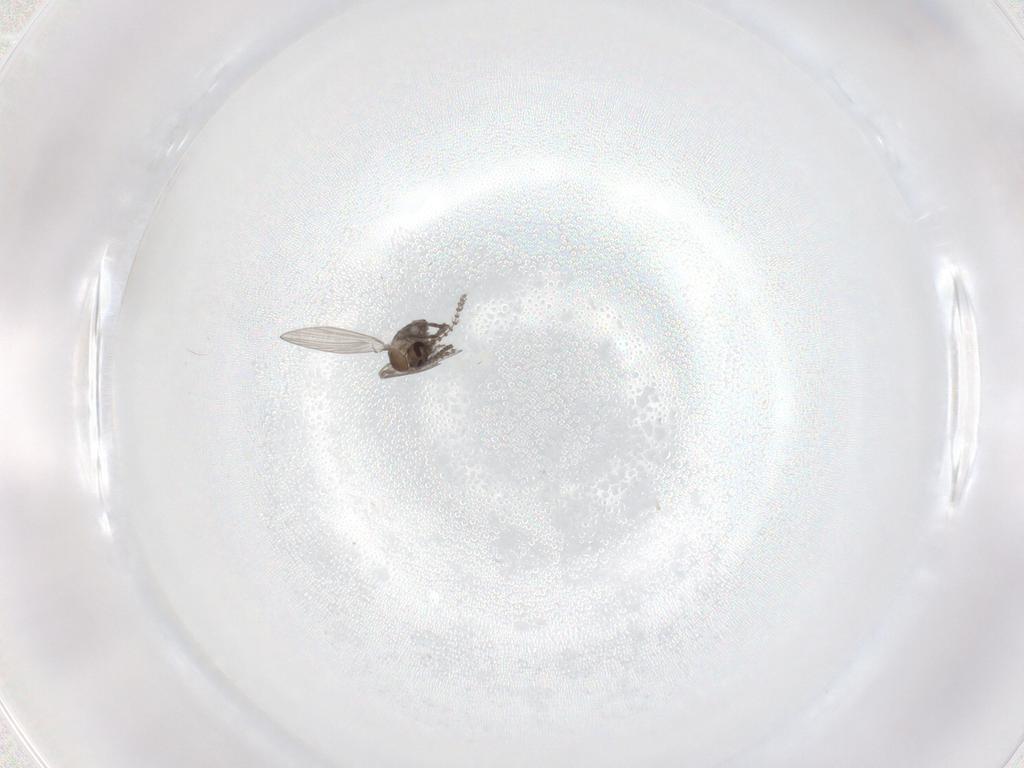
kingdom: Animalia
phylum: Arthropoda
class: Insecta
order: Diptera
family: Psychodidae
